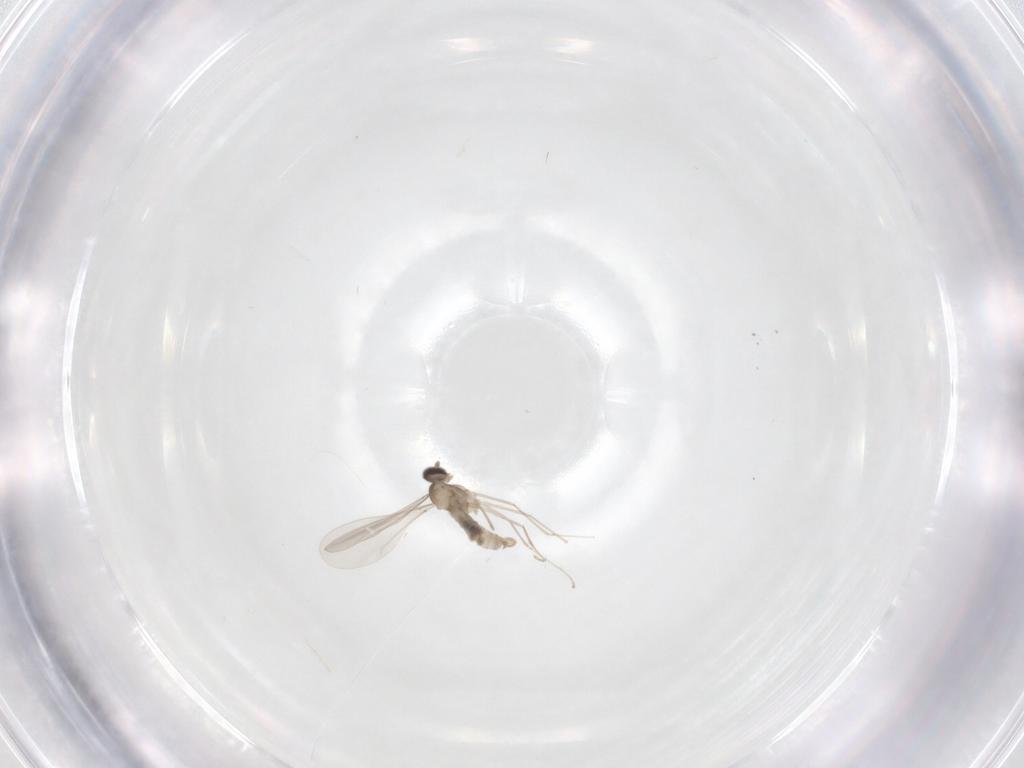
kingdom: Animalia
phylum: Arthropoda
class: Insecta
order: Diptera
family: Cecidomyiidae
